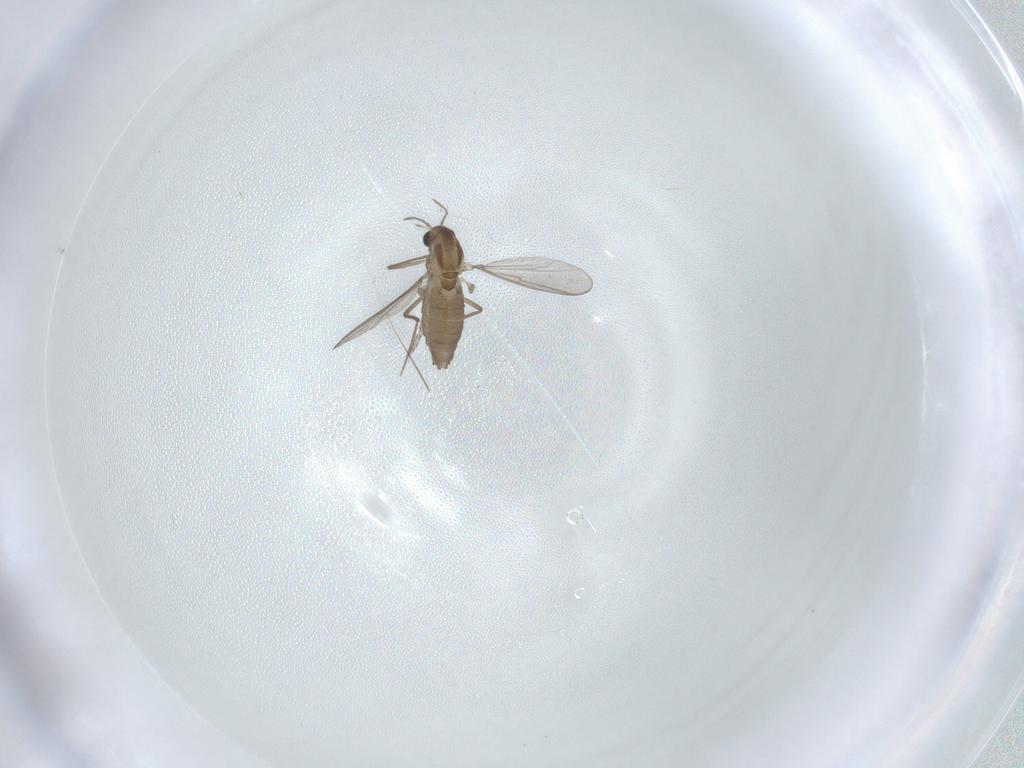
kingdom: Animalia
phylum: Arthropoda
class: Insecta
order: Diptera
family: Chironomidae
